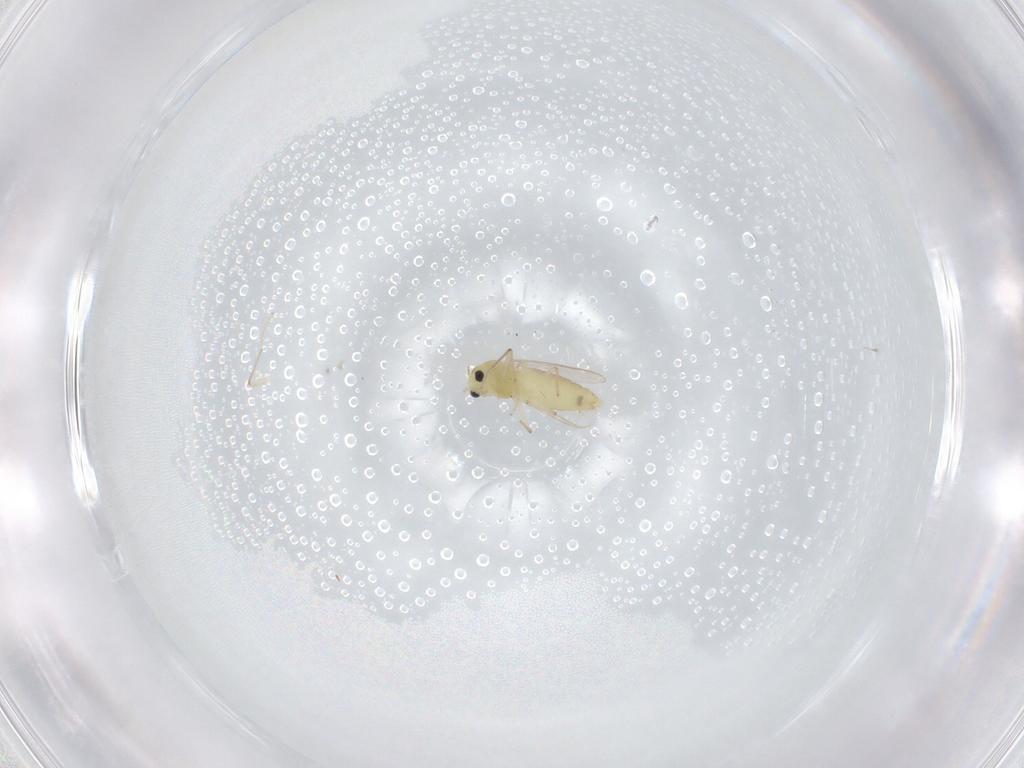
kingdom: Animalia
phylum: Arthropoda
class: Insecta
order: Diptera
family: Chironomidae
